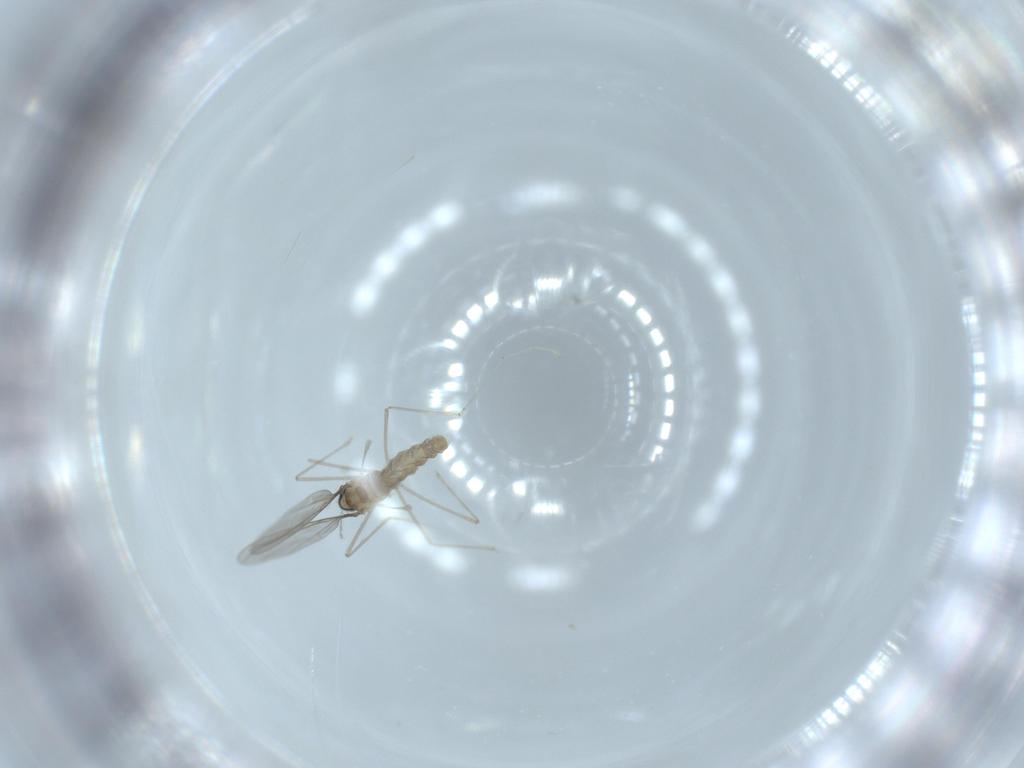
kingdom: Animalia
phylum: Arthropoda
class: Insecta
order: Diptera
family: Cecidomyiidae
